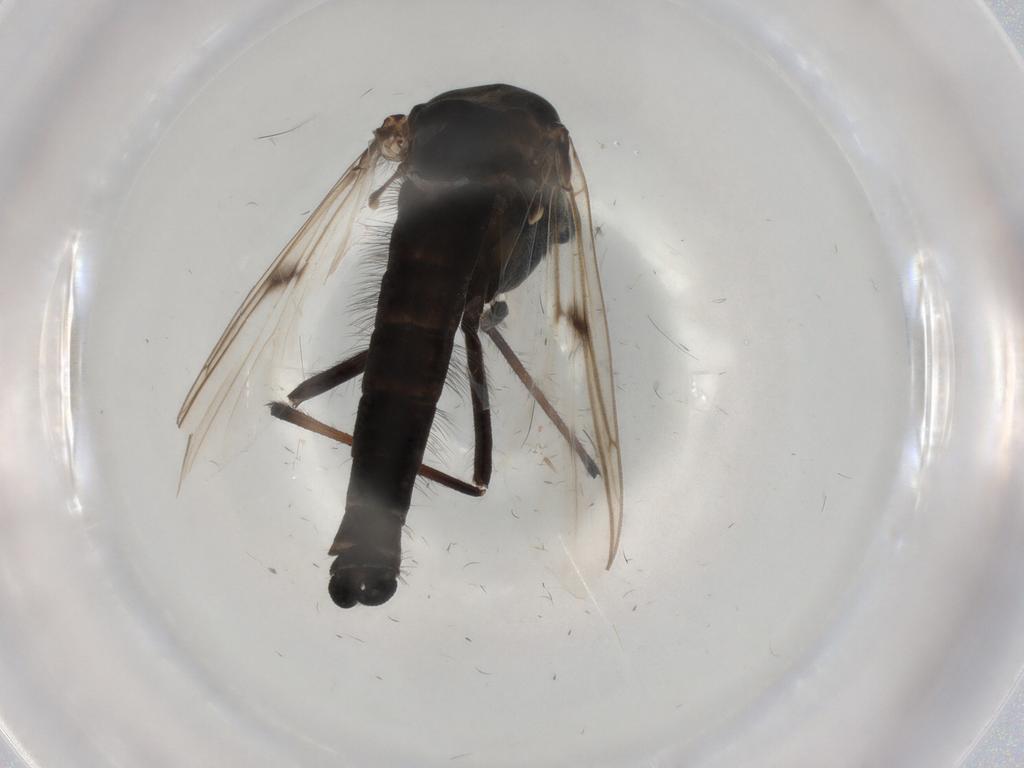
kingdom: Animalia
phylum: Arthropoda
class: Insecta
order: Diptera
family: Chironomidae
